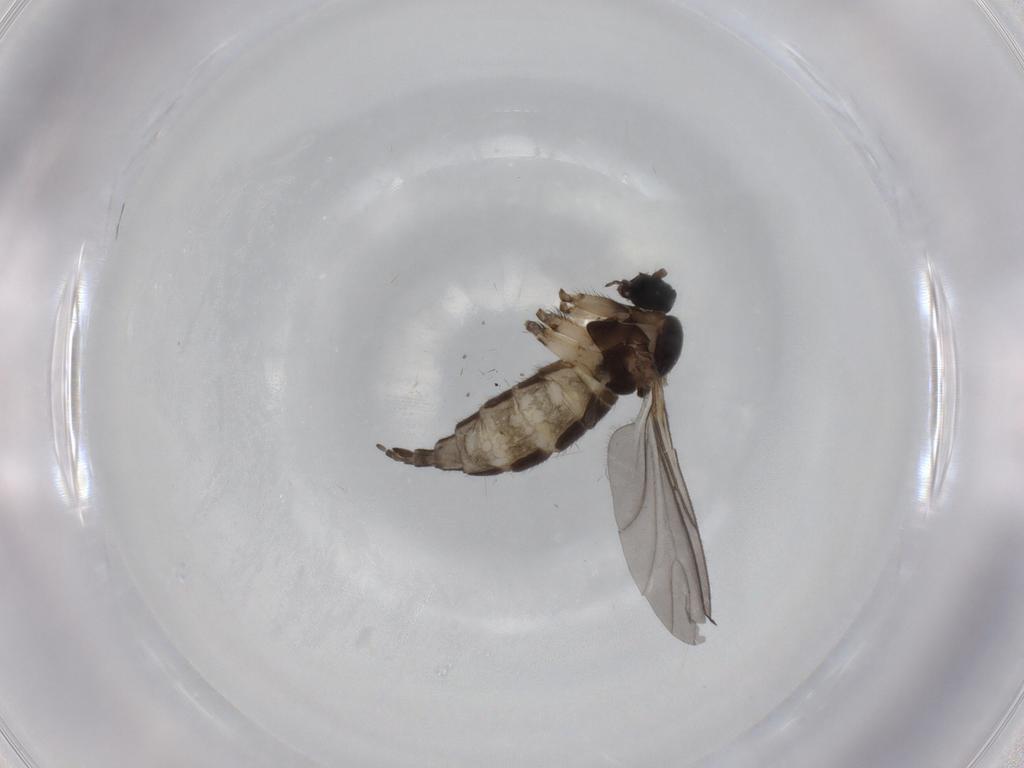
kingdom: Animalia
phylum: Arthropoda
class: Insecta
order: Diptera
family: Sciaridae
